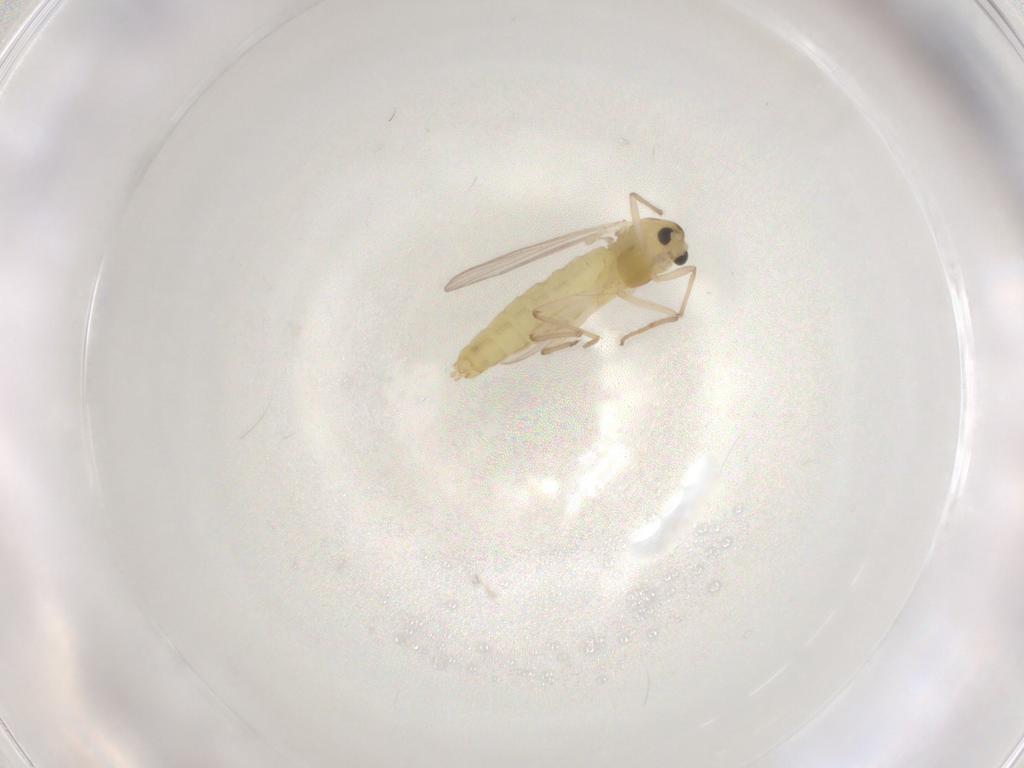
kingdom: Animalia
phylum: Arthropoda
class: Insecta
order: Diptera
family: Chironomidae
